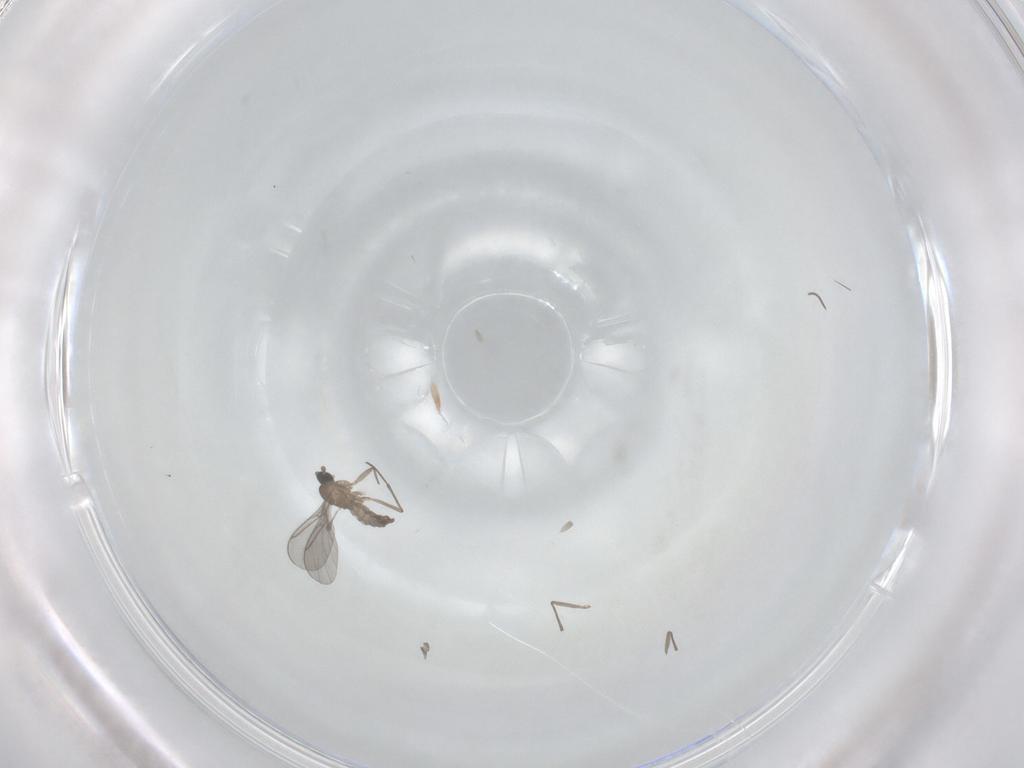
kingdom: Animalia
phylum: Arthropoda
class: Insecta
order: Diptera
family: Sciaridae
